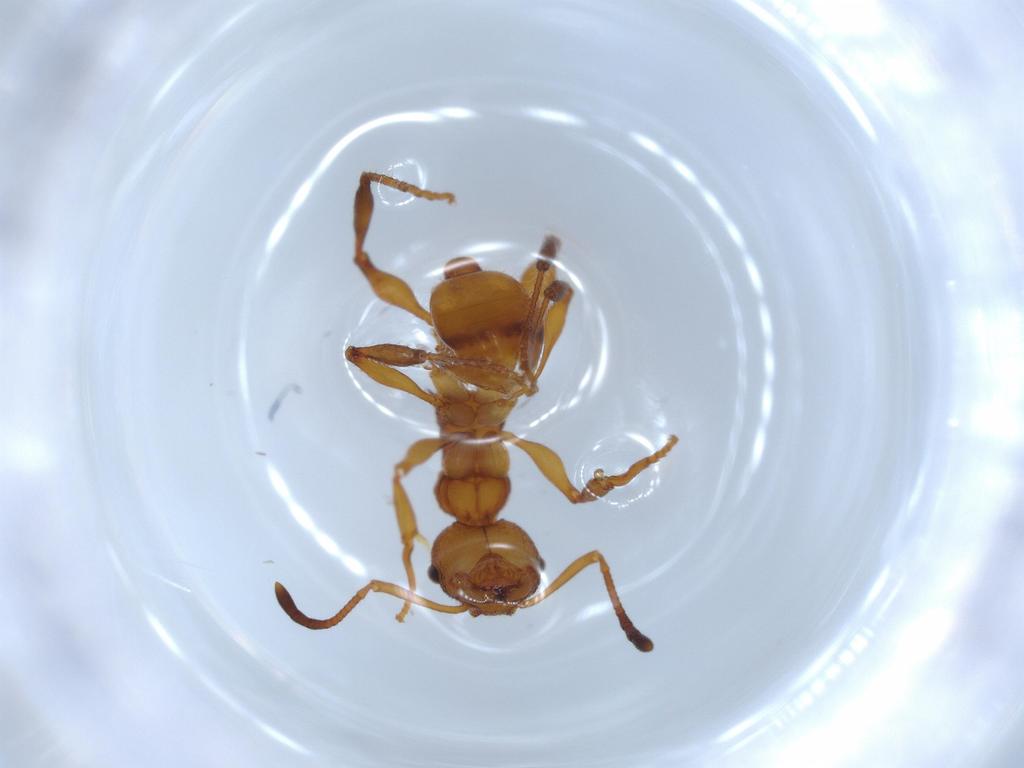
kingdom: Animalia
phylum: Arthropoda
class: Insecta
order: Hymenoptera
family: Formicidae
